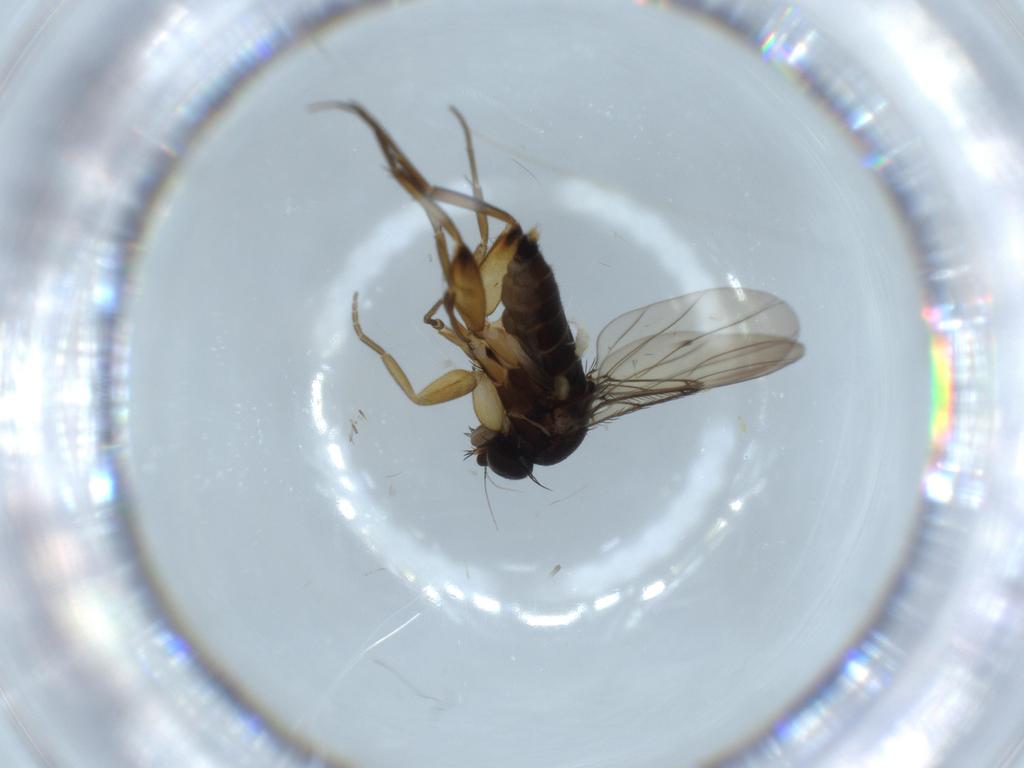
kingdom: Animalia
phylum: Arthropoda
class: Insecta
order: Diptera
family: Phoridae
